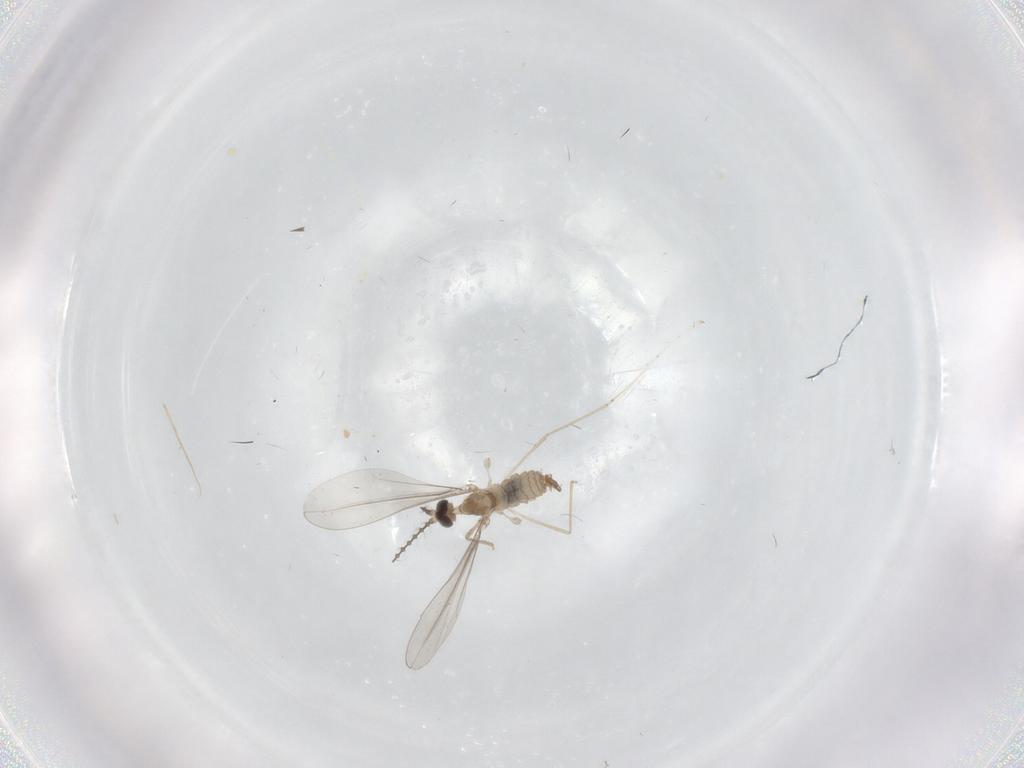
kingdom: Animalia
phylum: Arthropoda
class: Insecta
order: Diptera
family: Cecidomyiidae
